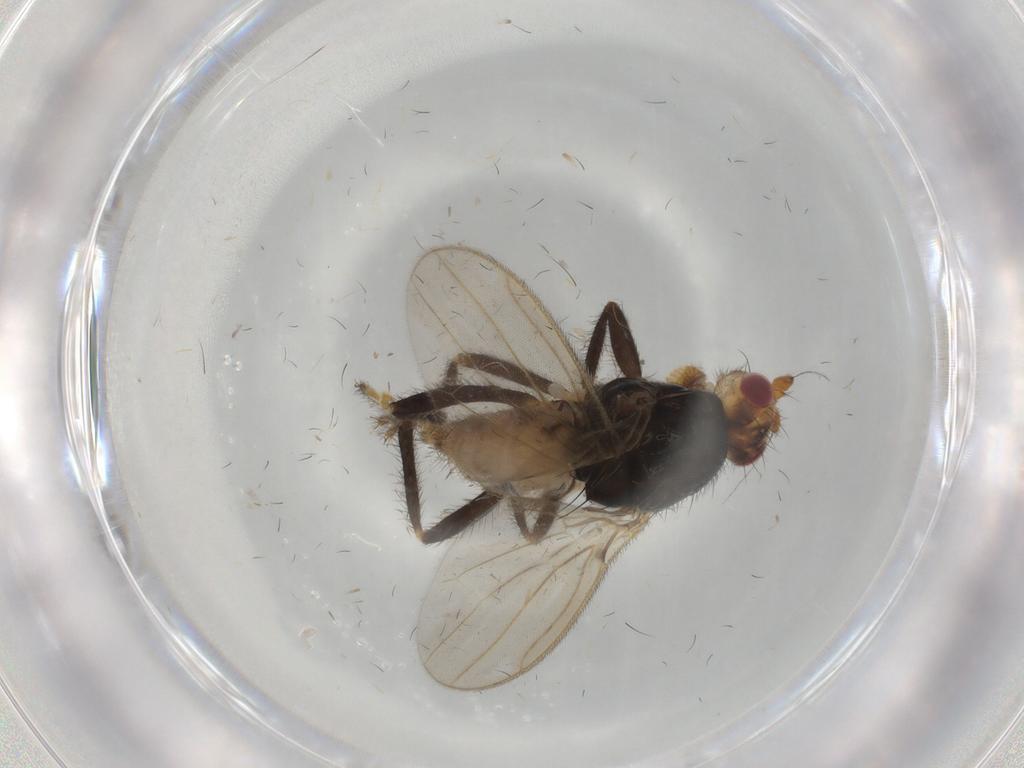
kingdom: Animalia
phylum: Arthropoda
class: Insecta
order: Diptera
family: Sphaeroceridae
